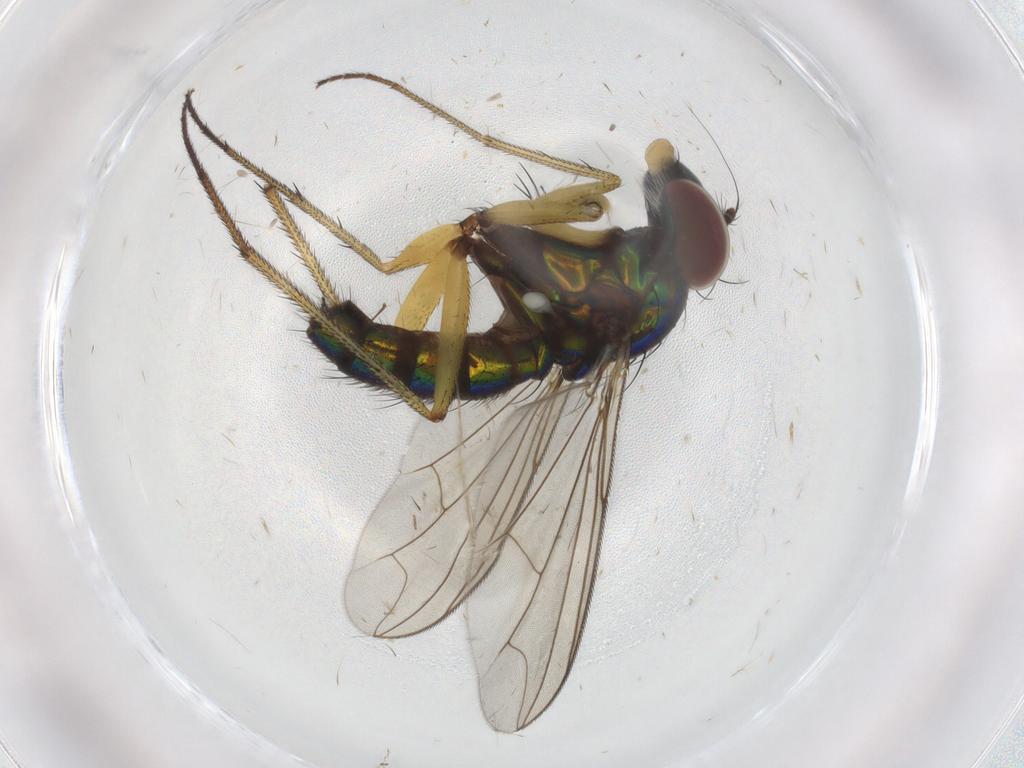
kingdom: Animalia
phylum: Arthropoda
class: Insecta
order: Diptera
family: Dolichopodidae
